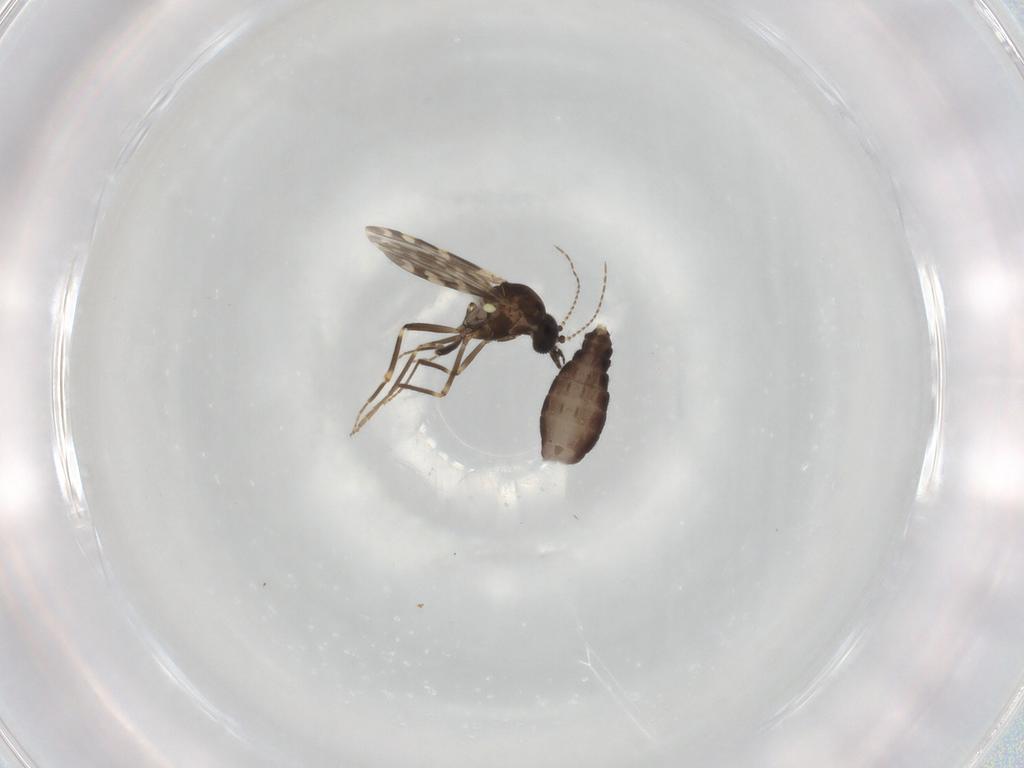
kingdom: Animalia
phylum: Arthropoda
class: Insecta
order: Diptera
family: Ceratopogonidae
